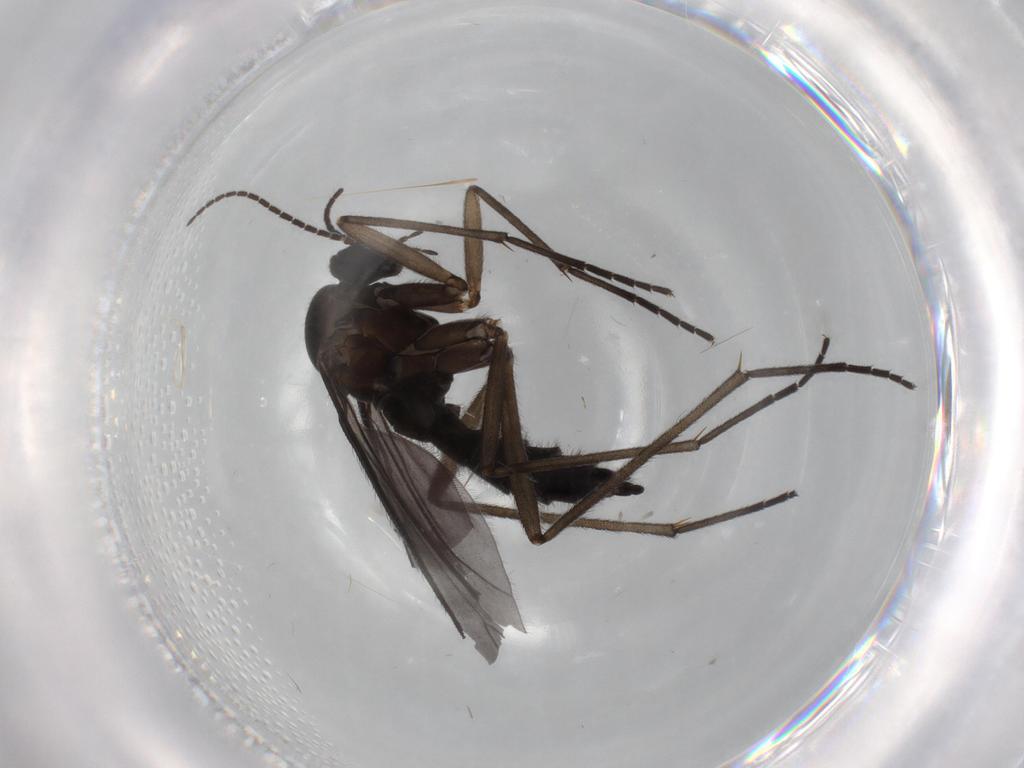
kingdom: Animalia
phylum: Arthropoda
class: Insecta
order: Diptera
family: Sciaridae
